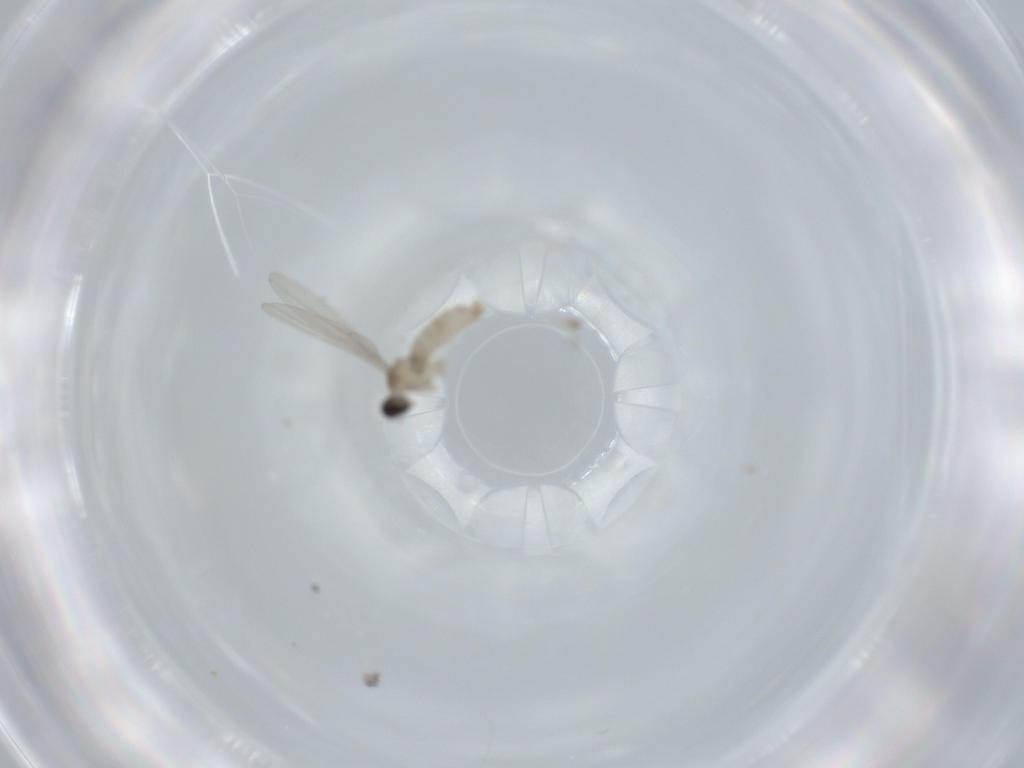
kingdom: Animalia
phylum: Arthropoda
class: Insecta
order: Diptera
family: Cecidomyiidae
